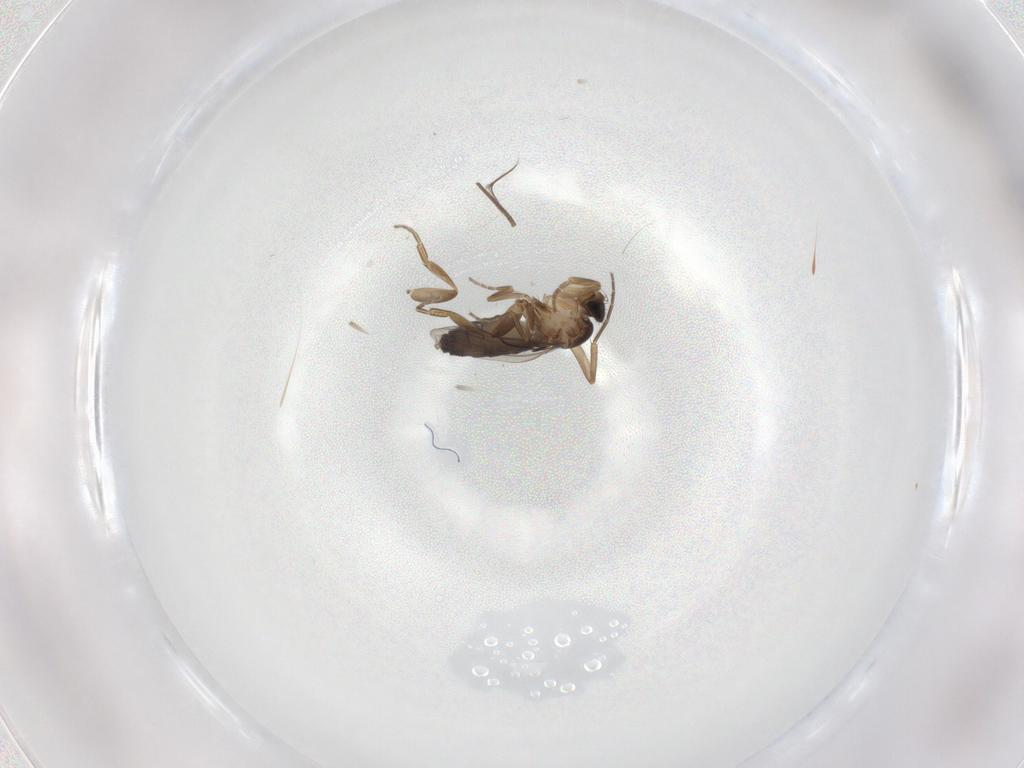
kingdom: Animalia
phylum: Arthropoda
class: Insecta
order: Diptera
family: Phoridae
